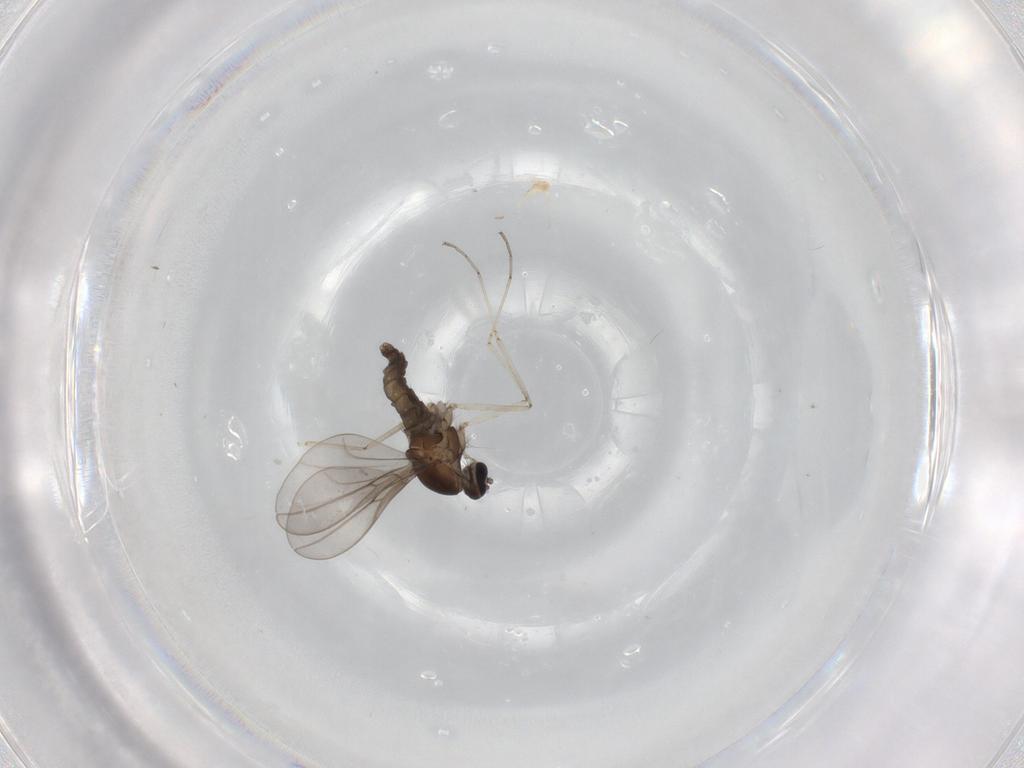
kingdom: Animalia
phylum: Arthropoda
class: Insecta
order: Diptera
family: Cecidomyiidae
